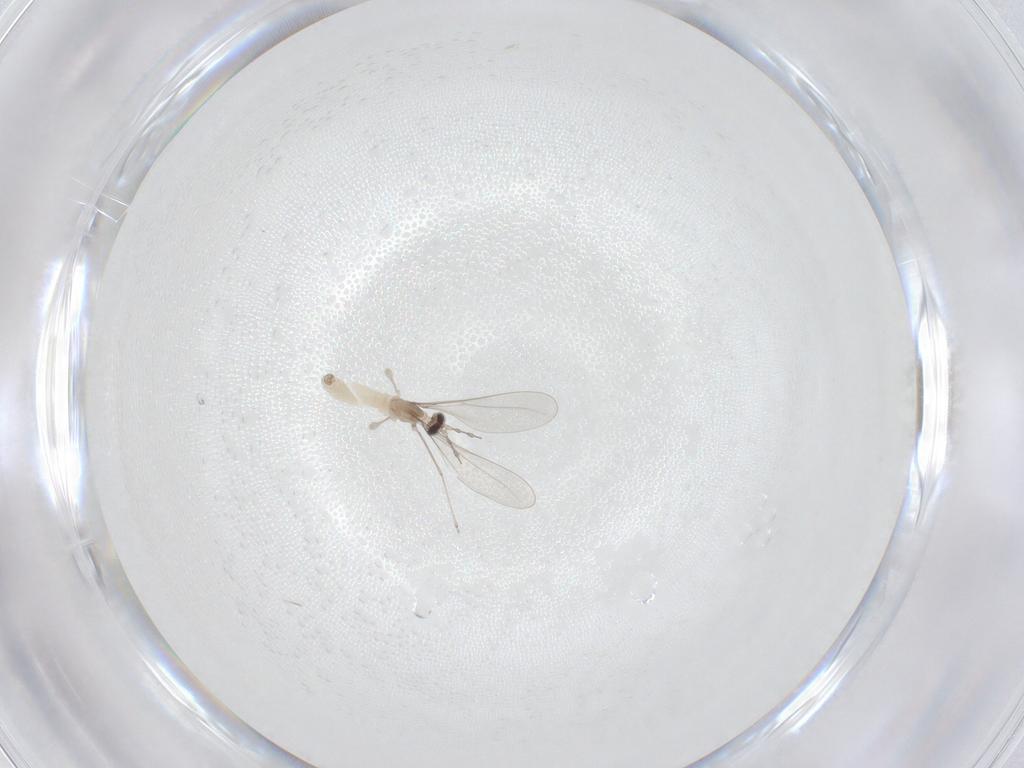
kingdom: Animalia
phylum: Arthropoda
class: Insecta
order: Diptera
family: Cecidomyiidae
